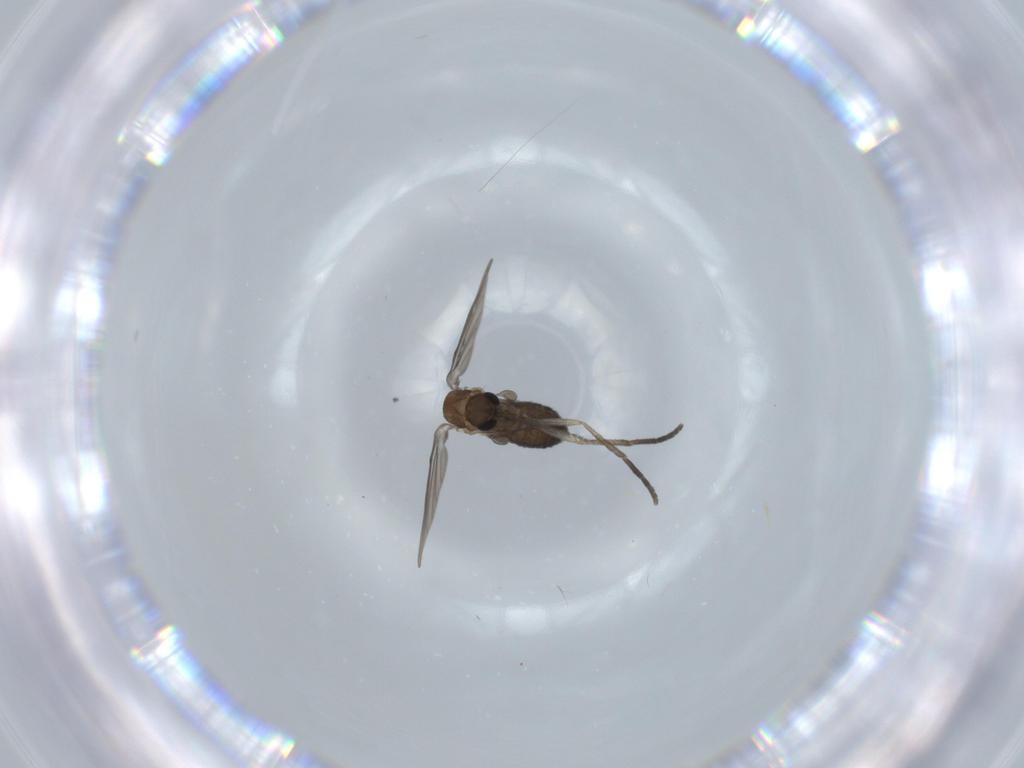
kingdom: Animalia
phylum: Arthropoda
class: Insecta
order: Diptera
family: Psychodidae
